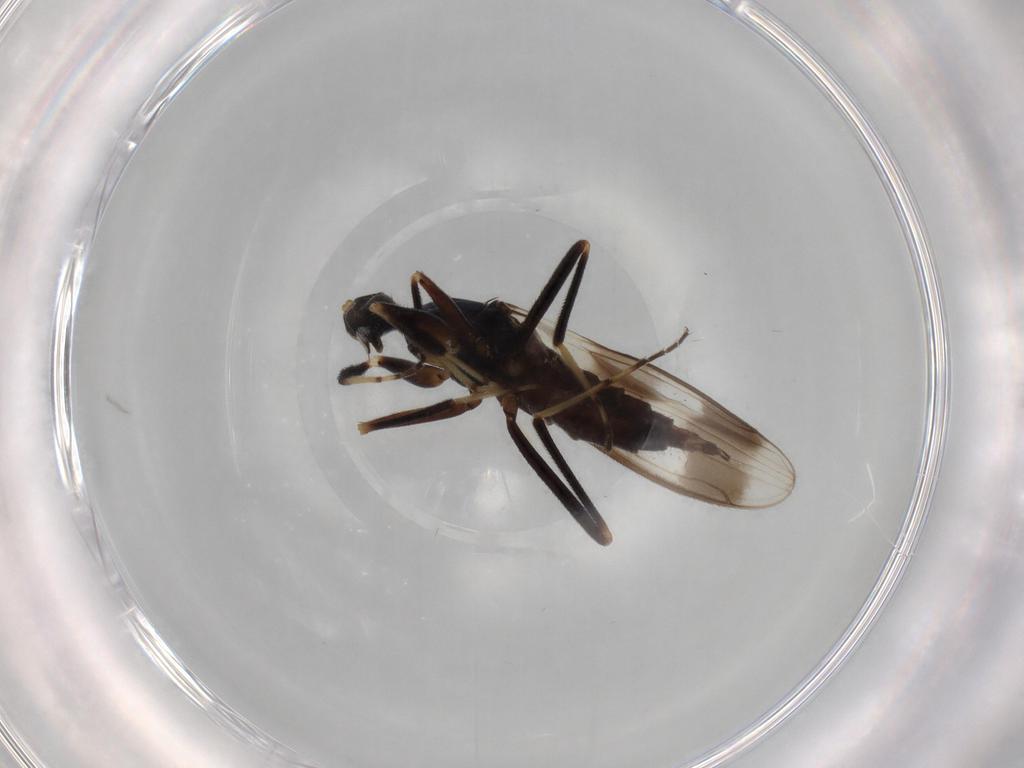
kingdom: Animalia
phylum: Arthropoda
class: Insecta
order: Diptera
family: Hybotidae
